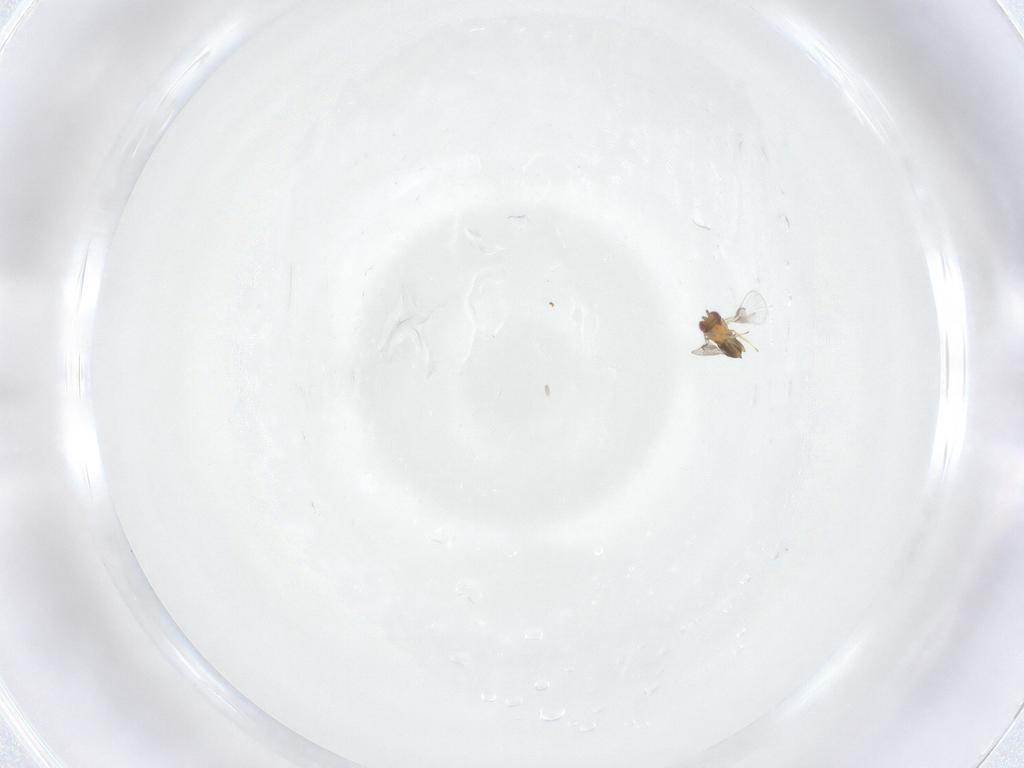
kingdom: Animalia
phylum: Arthropoda
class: Insecta
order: Hymenoptera
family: Trichogrammatidae
